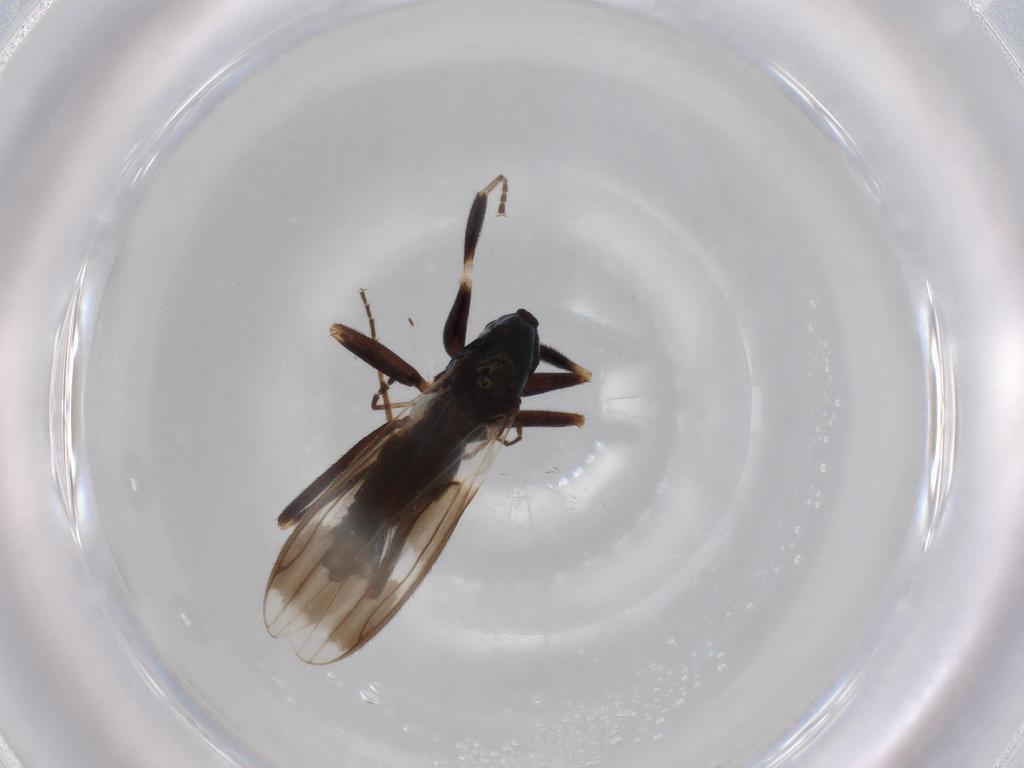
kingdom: Animalia
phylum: Arthropoda
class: Insecta
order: Diptera
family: Hybotidae
